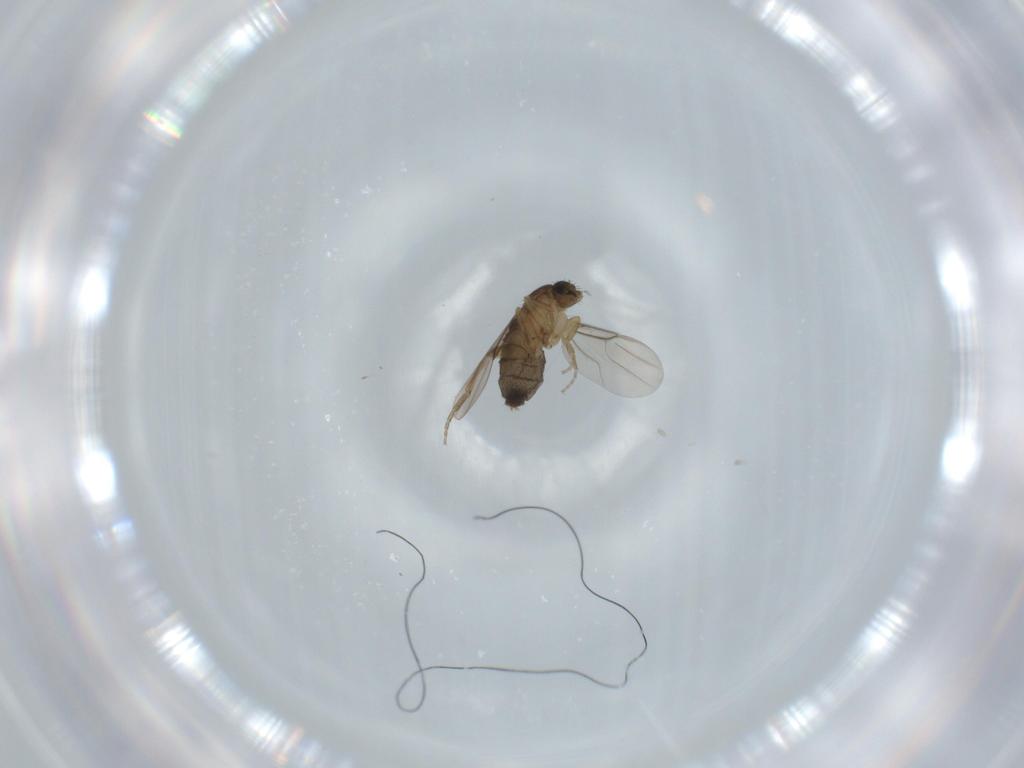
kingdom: Animalia
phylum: Arthropoda
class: Insecta
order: Diptera
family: Phoridae
